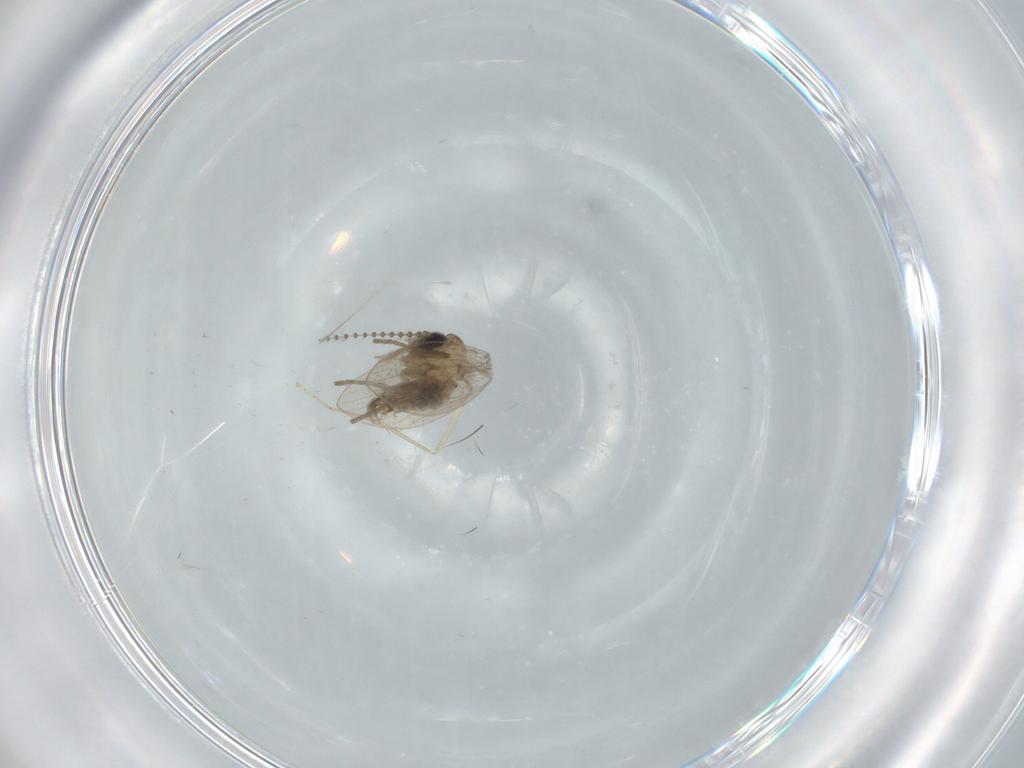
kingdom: Animalia
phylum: Arthropoda
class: Insecta
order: Diptera
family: Psychodidae
